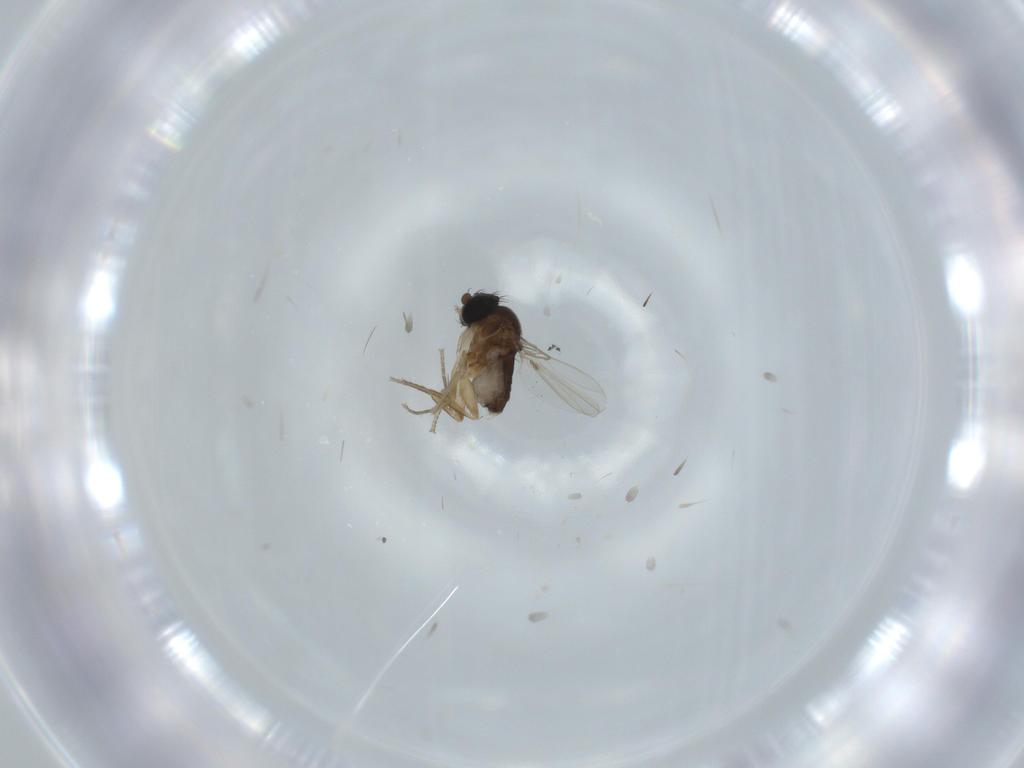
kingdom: Animalia
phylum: Arthropoda
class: Insecta
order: Diptera
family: Ceratopogonidae
